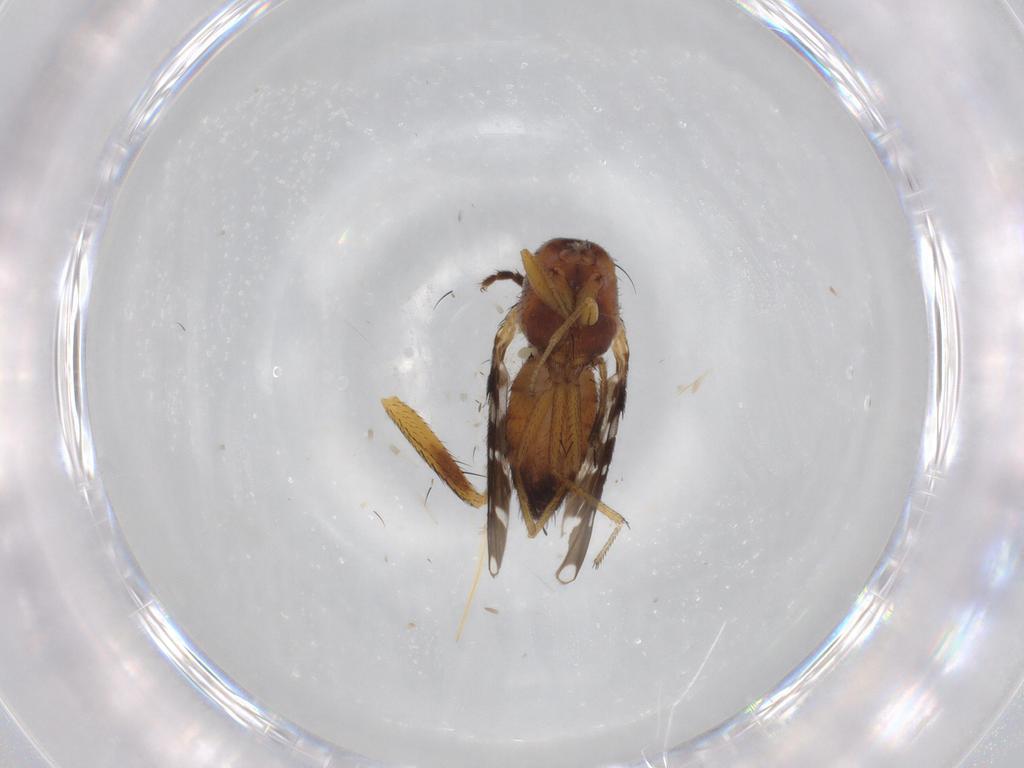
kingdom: Animalia
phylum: Arthropoda
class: Insecta
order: Diptera
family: Ephydridae
